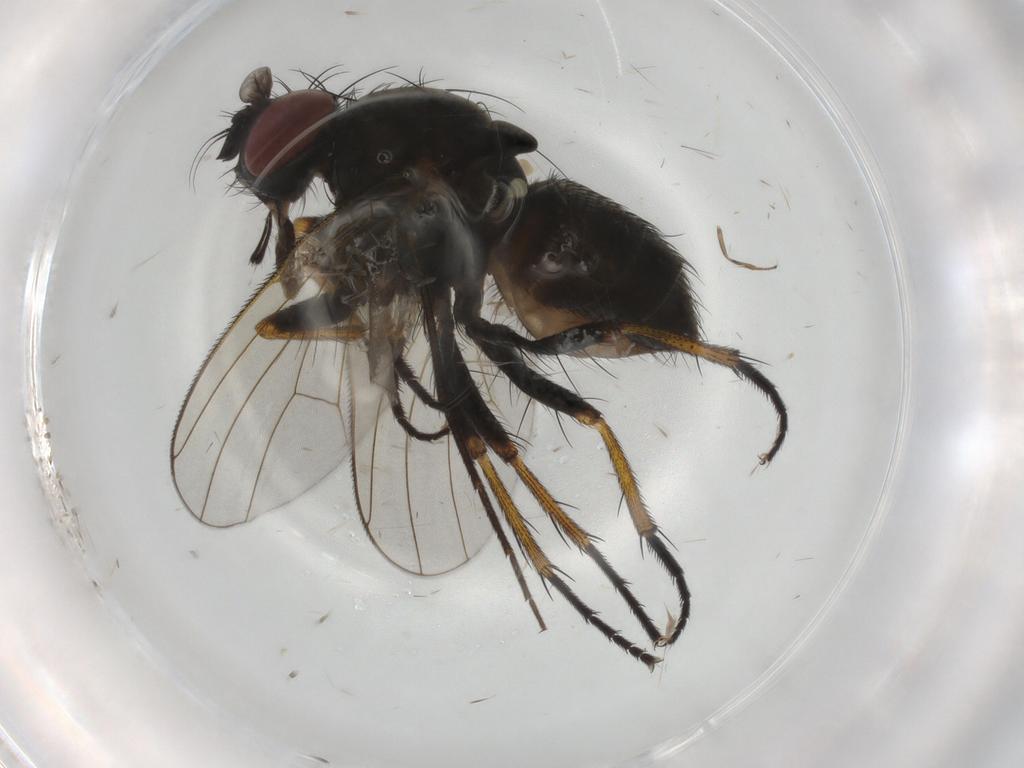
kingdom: Animalia
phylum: Arthropoda
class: Insecta
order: Diptera
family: Muscidae
